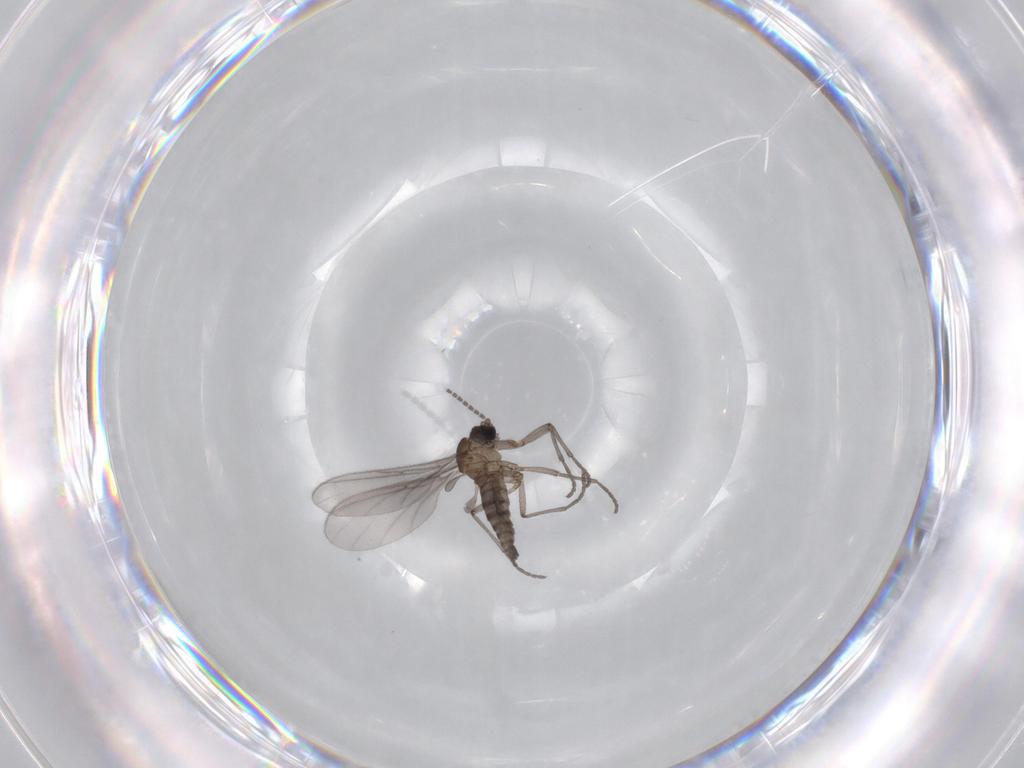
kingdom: Animalia
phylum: Arthropoda
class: Insecta
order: Diptera
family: Sciaridae
